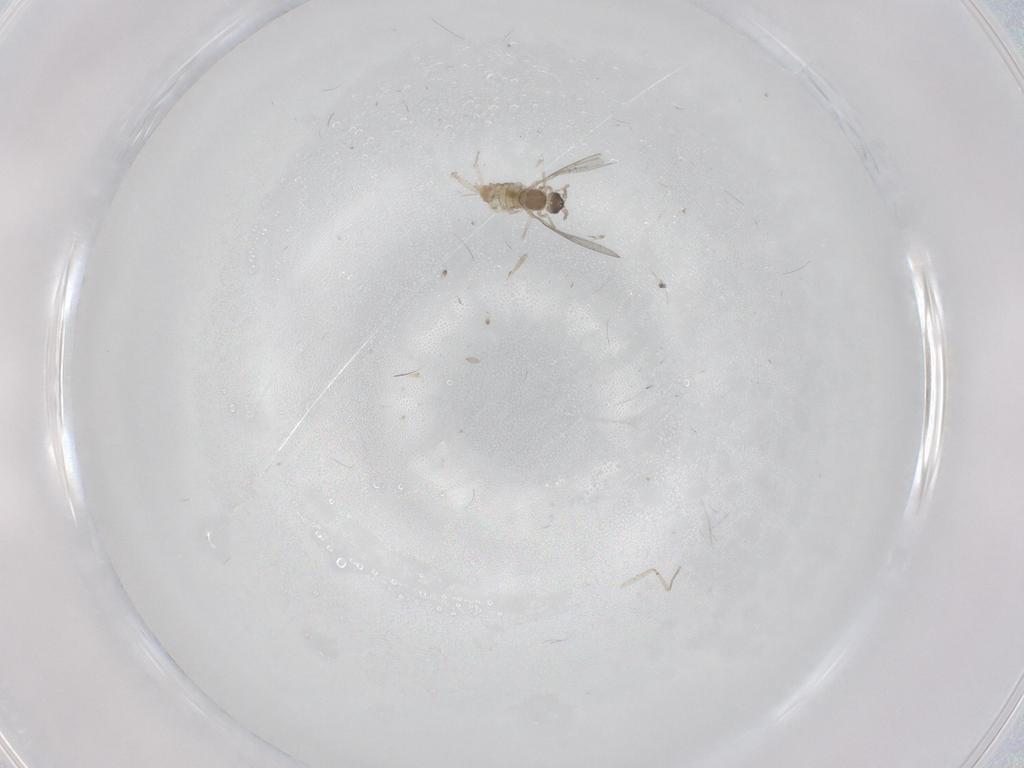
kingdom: Animalia
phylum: Arthropoda
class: Insecta
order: Diptera
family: Cecidomyiidae
